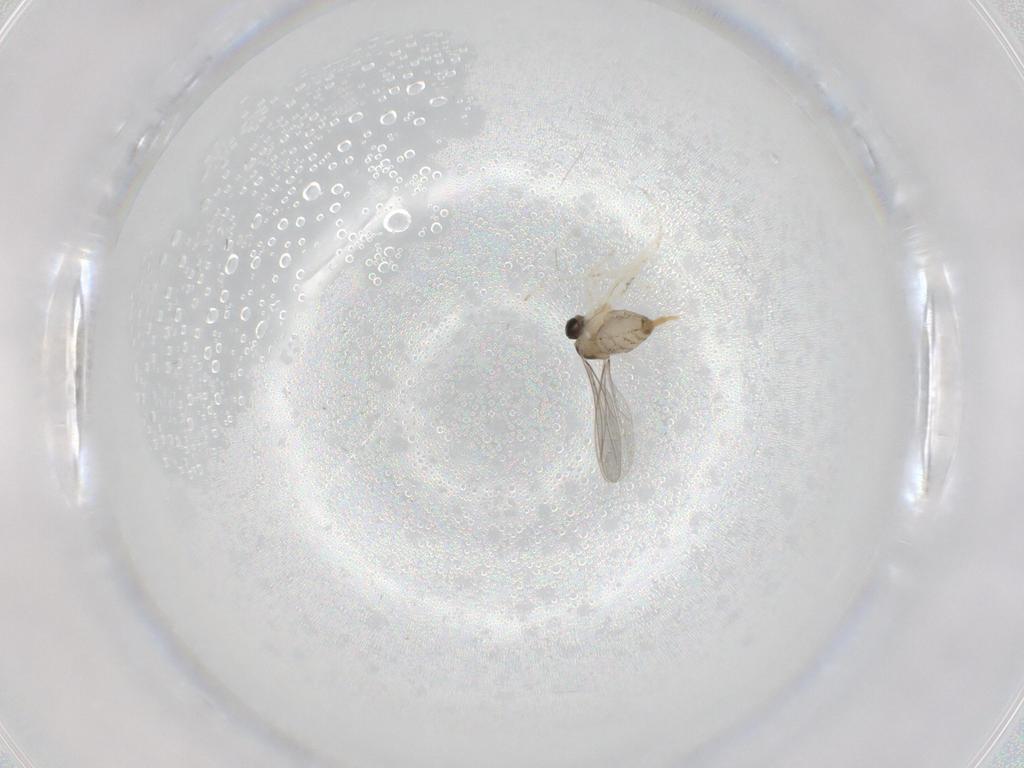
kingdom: Animalia
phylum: Arthropoda
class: Insecta
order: Diptera
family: Cecidomyiidae
